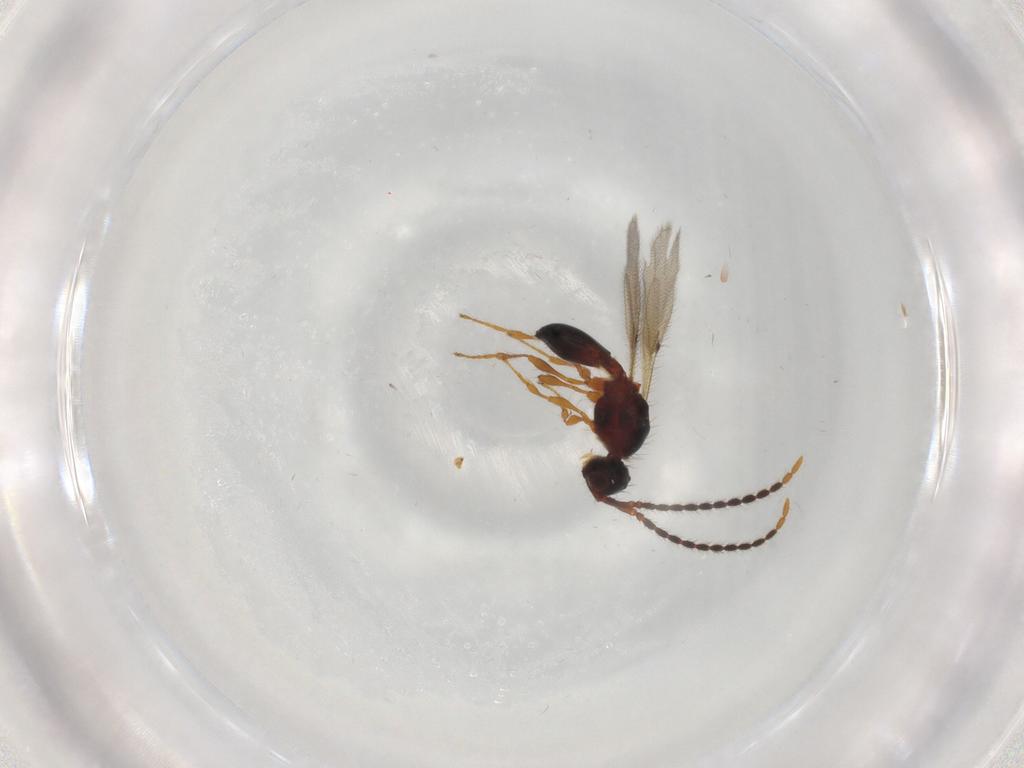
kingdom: Animalia
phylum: Arthropoda
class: Insecta
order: Hymenoptera
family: Diapriidae
